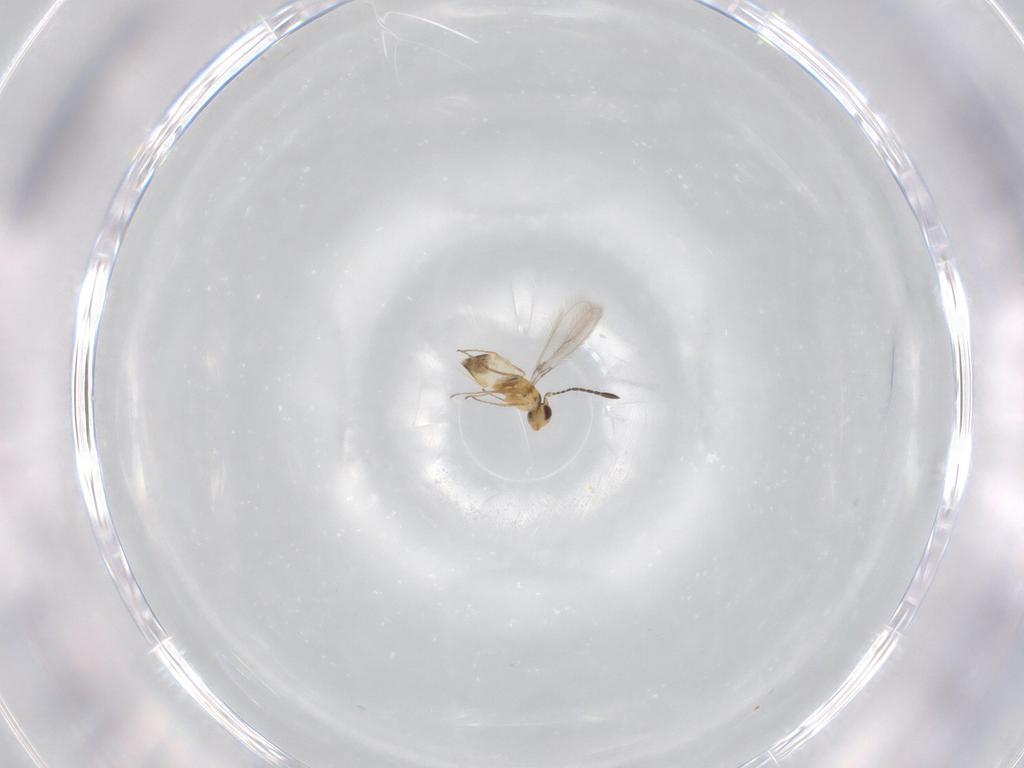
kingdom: Animalia
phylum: Arthropoda
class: Insecta
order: Hymenoptera
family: Mymaridae
